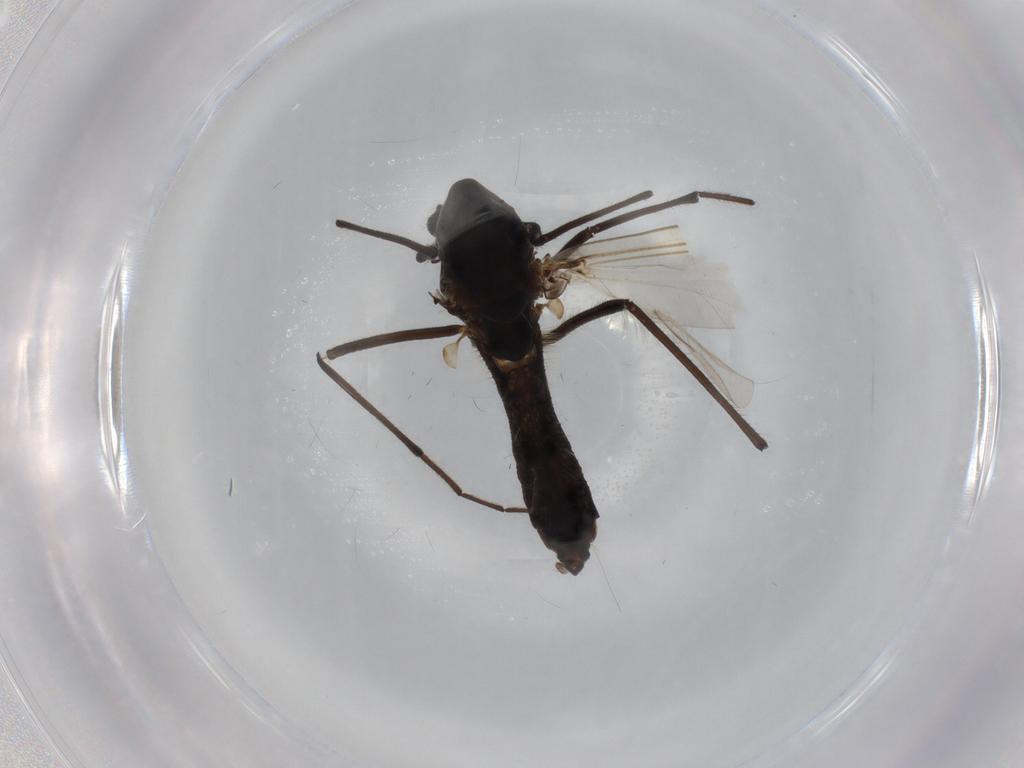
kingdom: Animalia
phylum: Arthropoda
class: Insecta
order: Diptera
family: Chironomidae
